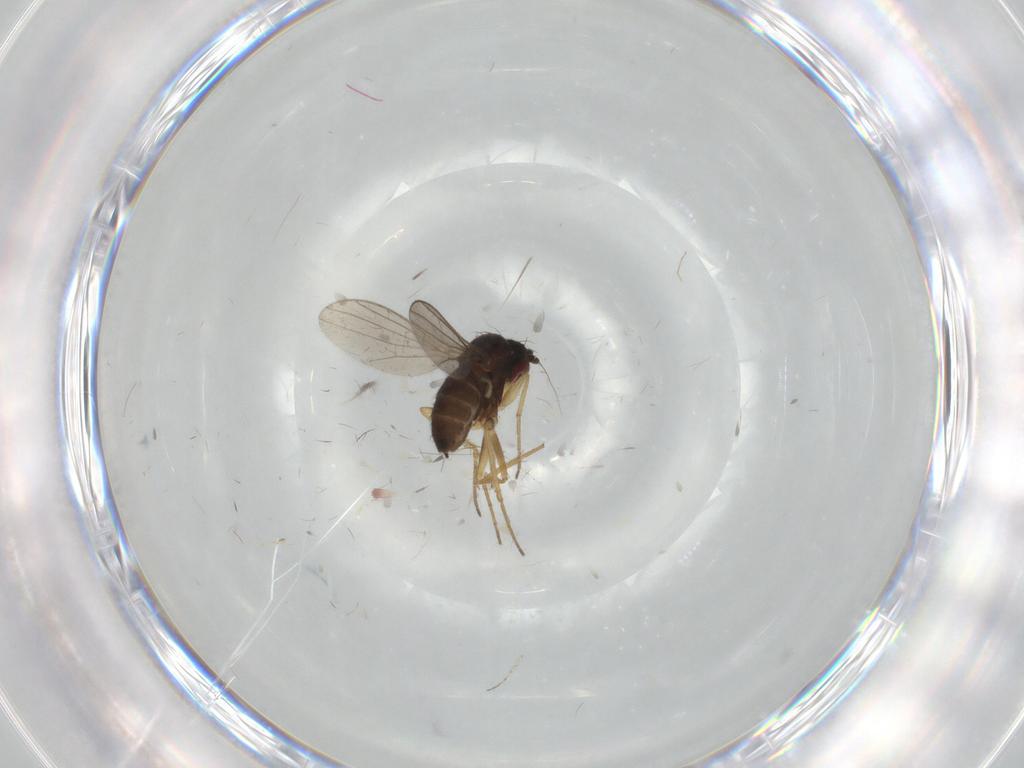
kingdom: Animalia
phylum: Arthropoda
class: Insecta
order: Diptera
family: Dolichopodidae
